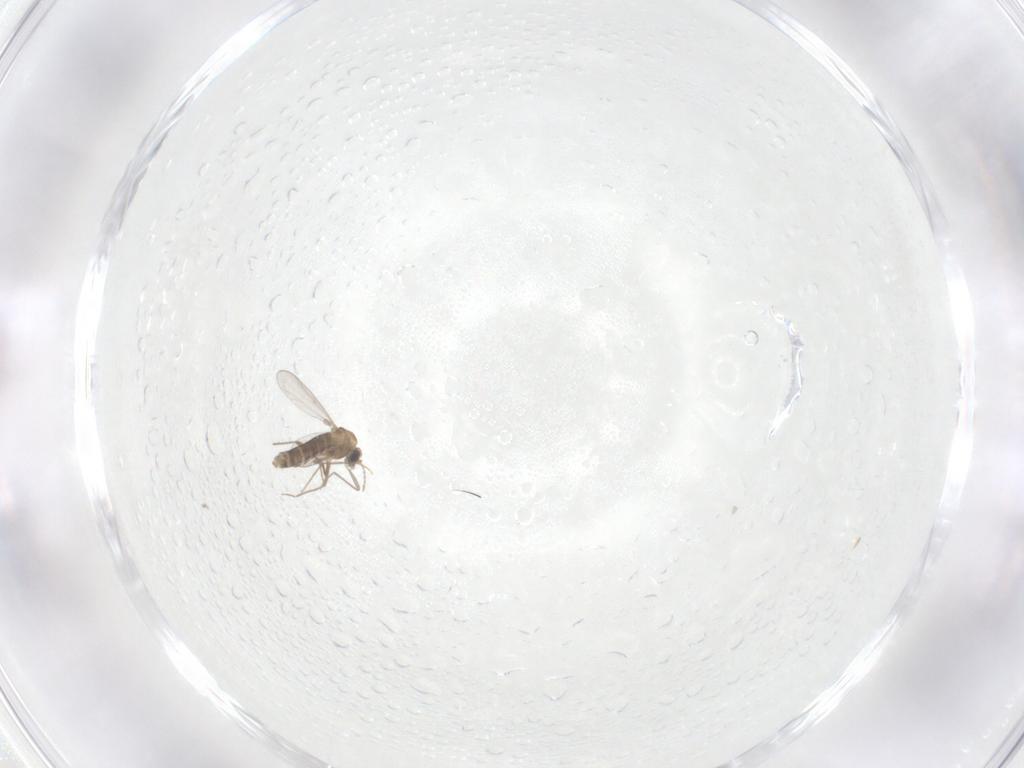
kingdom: Animalia
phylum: Arthropoda
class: Insecta
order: Diptera
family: Chironomidae
